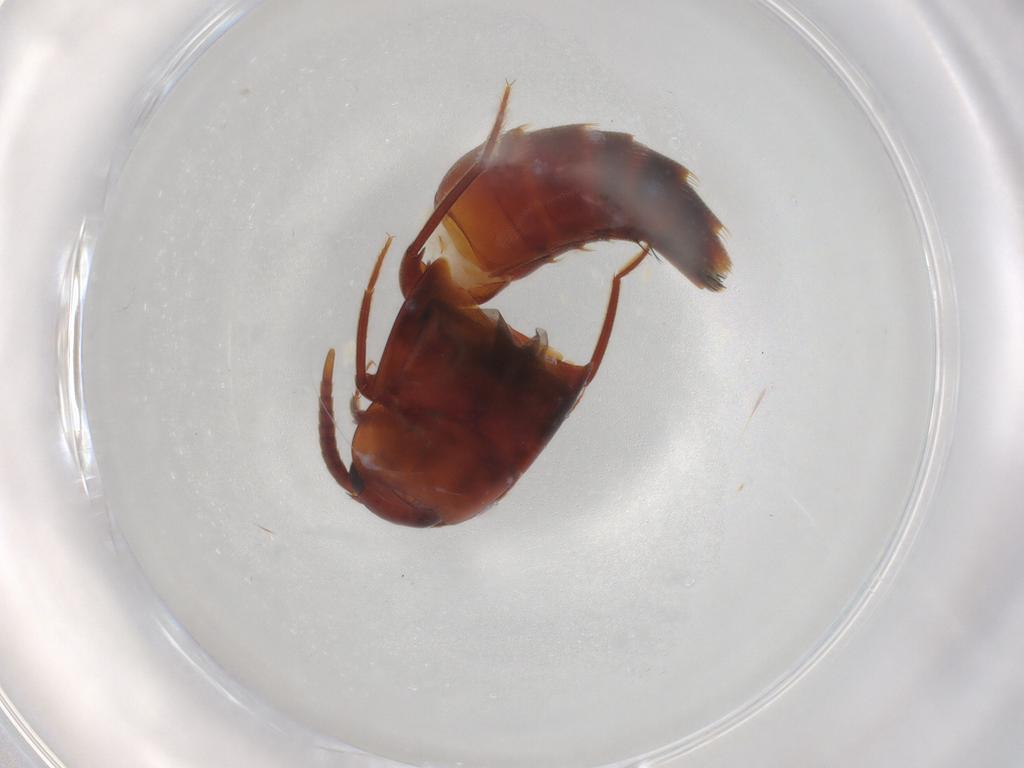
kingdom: Animalia
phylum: Arthropoda
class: Insecta
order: Coleoptera
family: Staphylinidae
